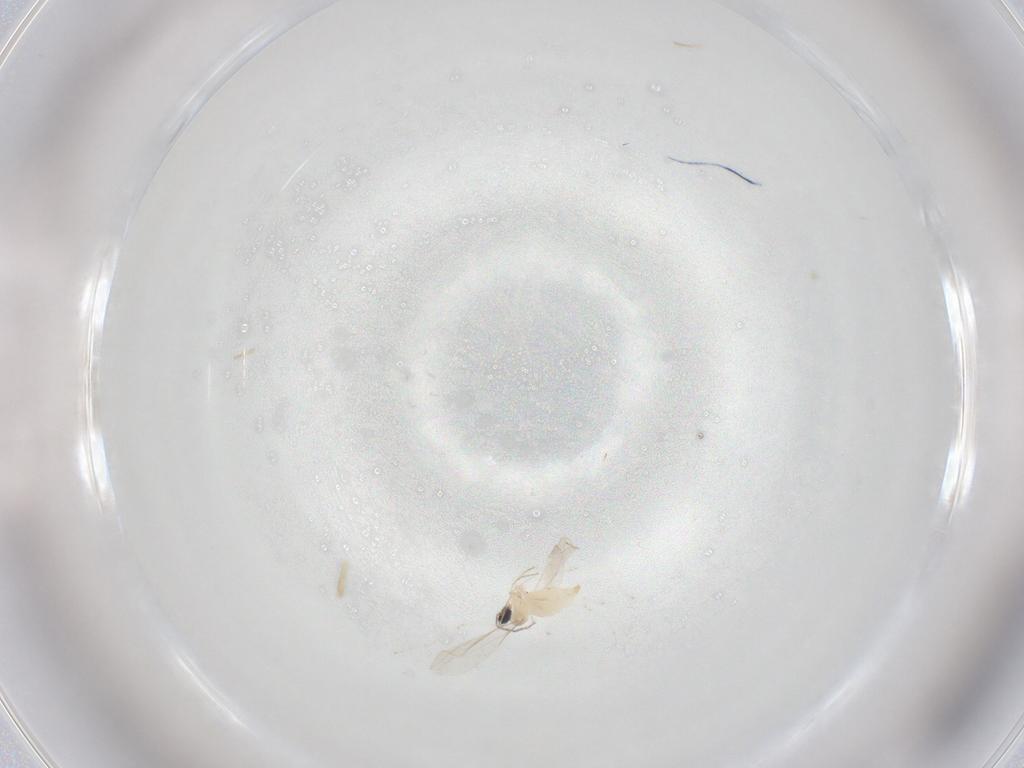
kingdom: Animalia
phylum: Arthropoda
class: Insecta
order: Diptera
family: Cecidomyiidae
